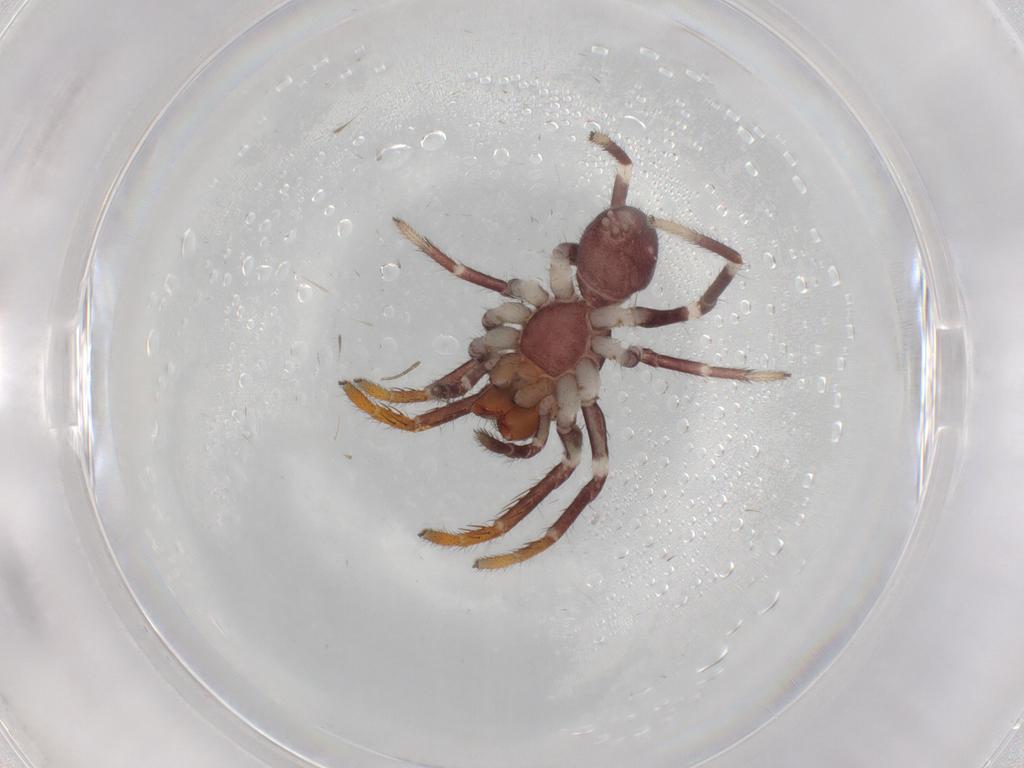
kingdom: Animalia
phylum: Arthropoda
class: Arachnida
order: Araneae
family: Corinnidae
